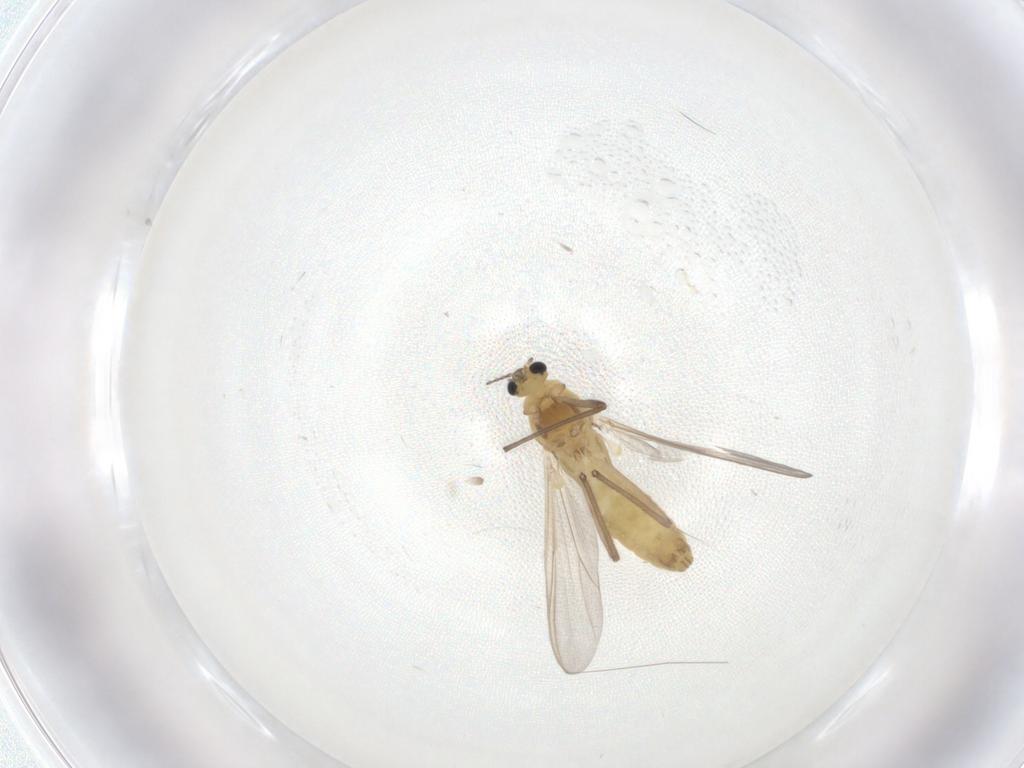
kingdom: Animalia
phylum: Arthropoda
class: Insecta
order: Diptera
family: Chironomidae
